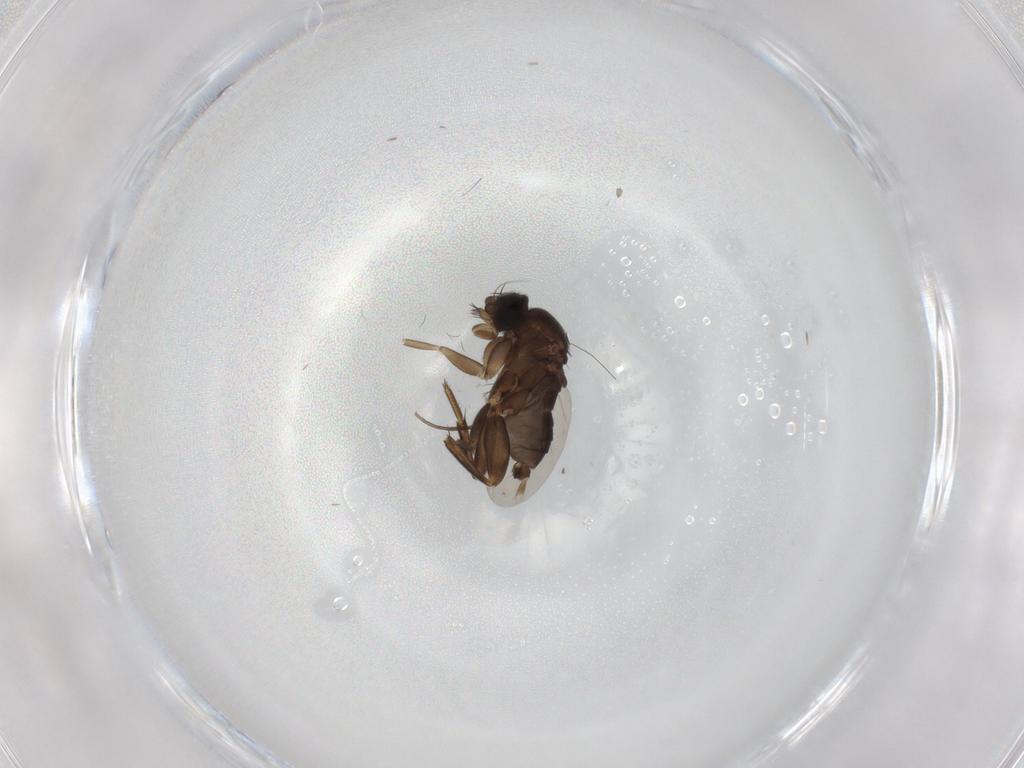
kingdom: Animalia
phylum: Arthropoda
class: Insecta
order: Diptera
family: Phoridae
